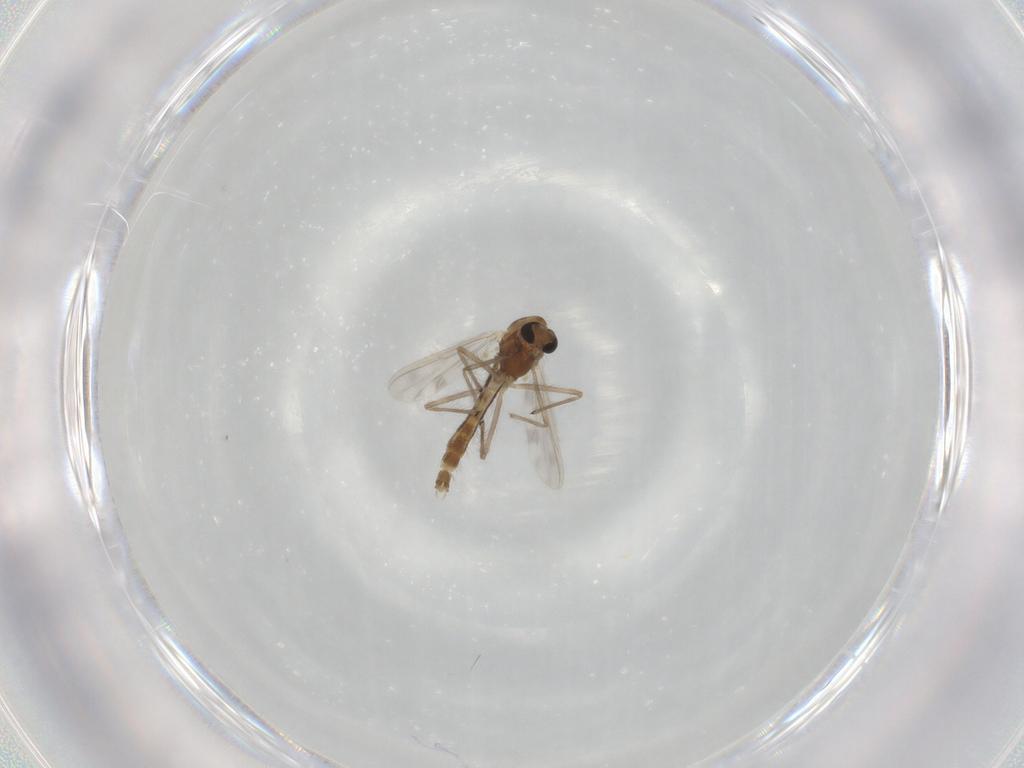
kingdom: Animalia
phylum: Arthropoda
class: Insecta
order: Diptera
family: Chironomidae
